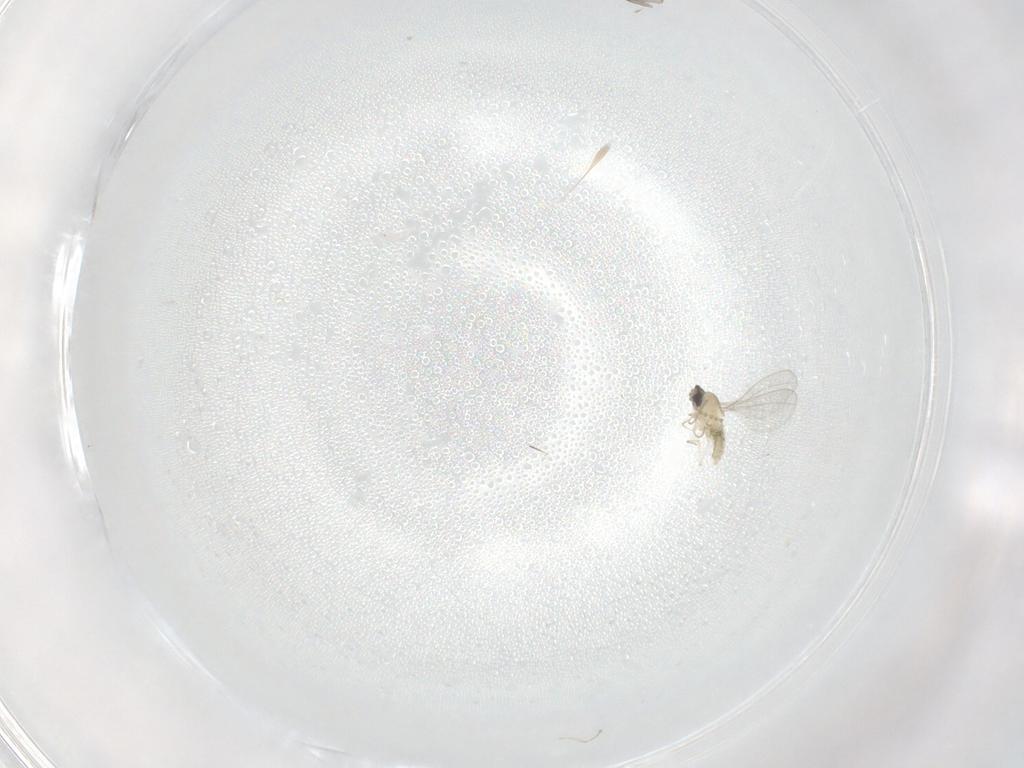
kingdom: Animalia
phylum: Arthropoda
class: Insecta
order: Diptera
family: Cecidomyiidae
